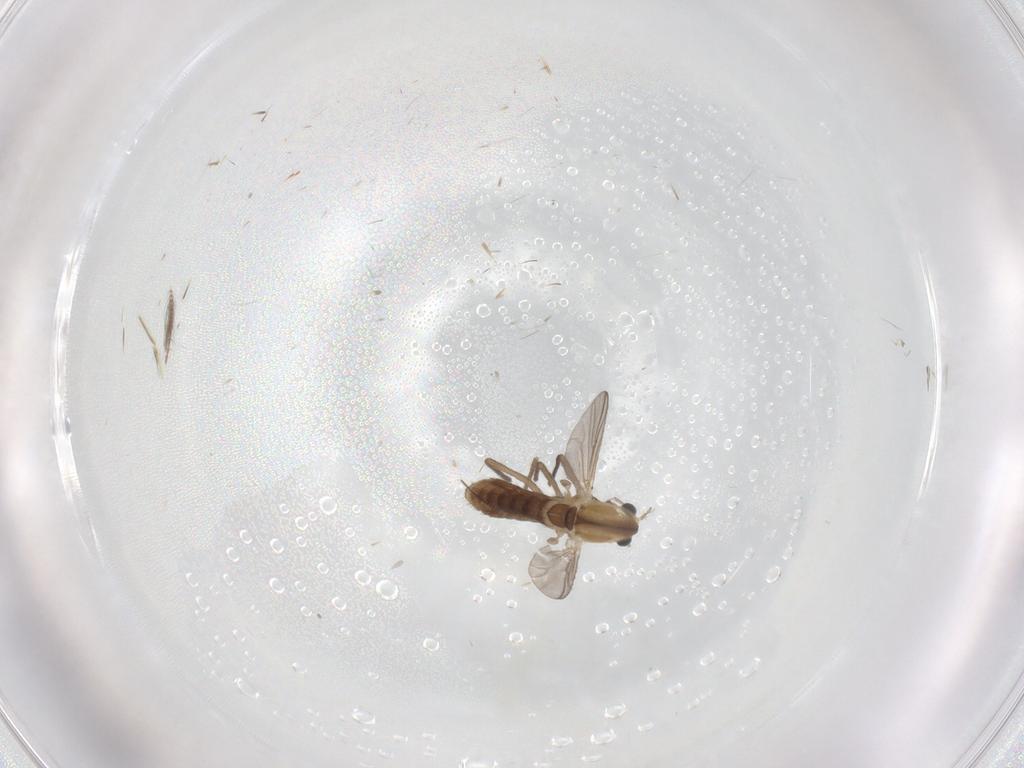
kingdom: Animalia
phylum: Arthropoda
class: Insecta
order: Diptera
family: Chironomidae
